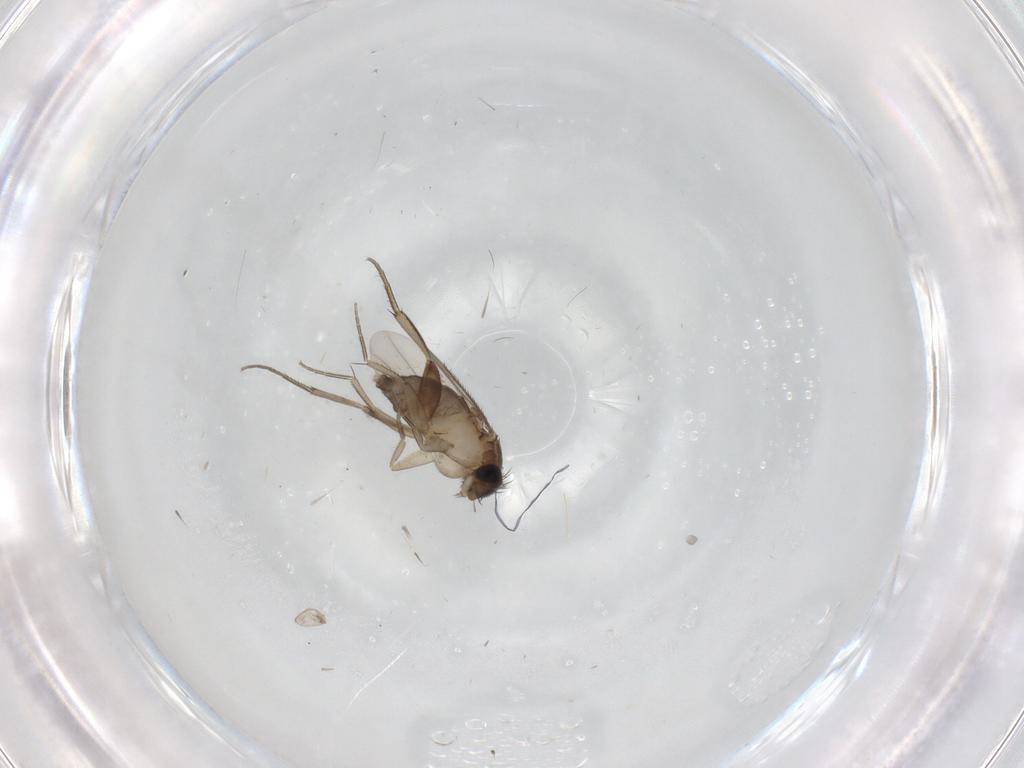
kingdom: Animalia
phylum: Arthropoda
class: Insecta
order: Diptera
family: Phoridae
